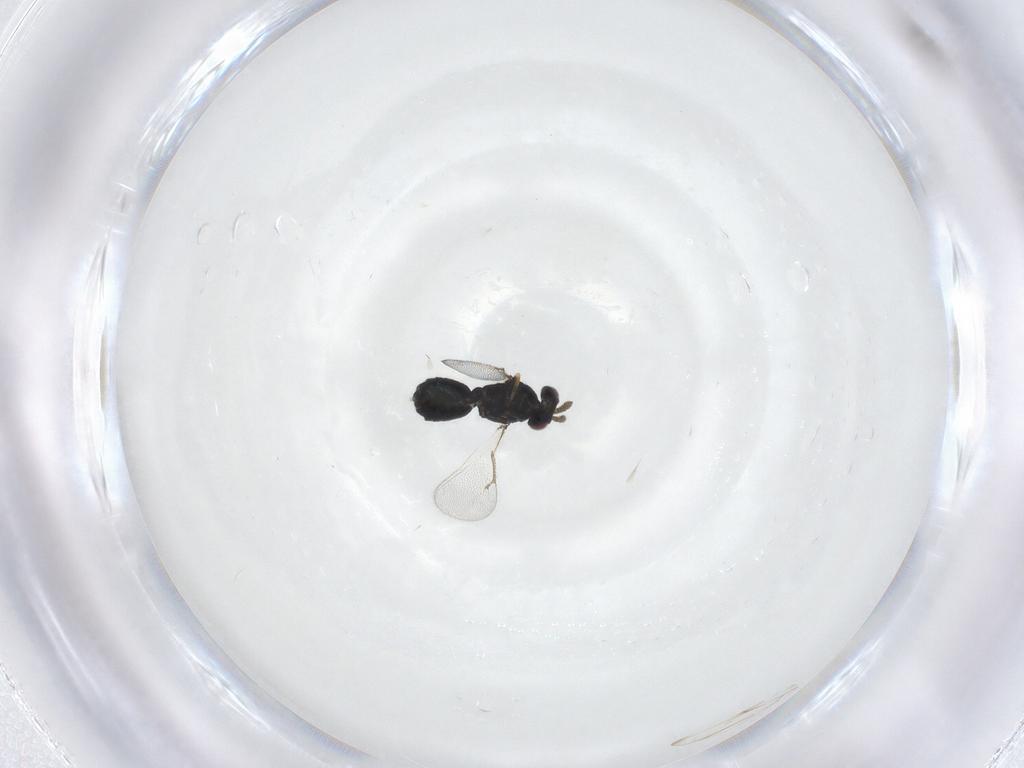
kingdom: Animalia
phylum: Arthropoda
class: Insecta
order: Hymenoptera
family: Eulophidae
